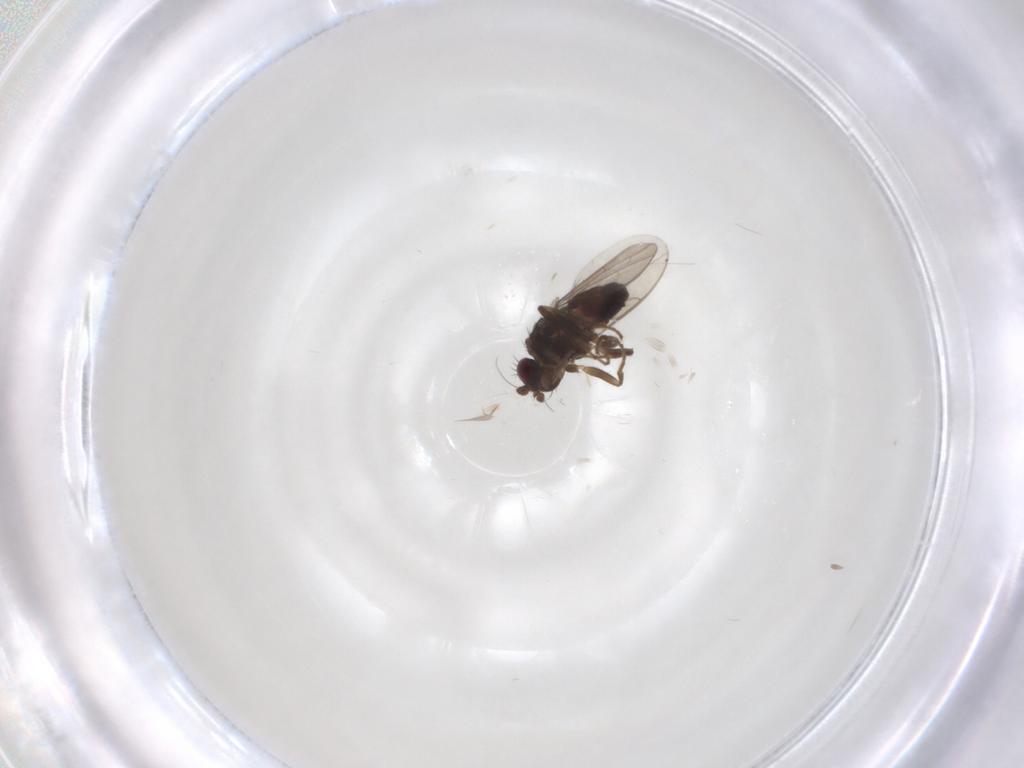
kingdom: Animalia
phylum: Arthropoda
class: Insecta
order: Diptera
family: Sphaeroceridae
